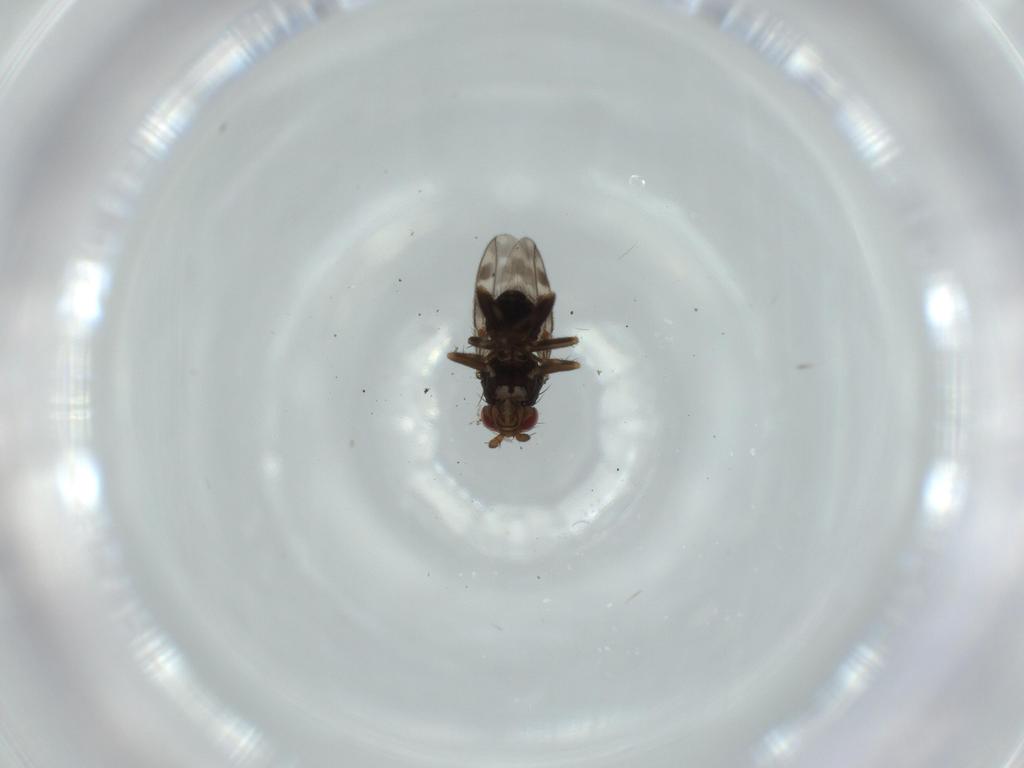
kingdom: Animalia
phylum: Arthropoda
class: Insecta
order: Diptera
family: Sphaeroceridae
